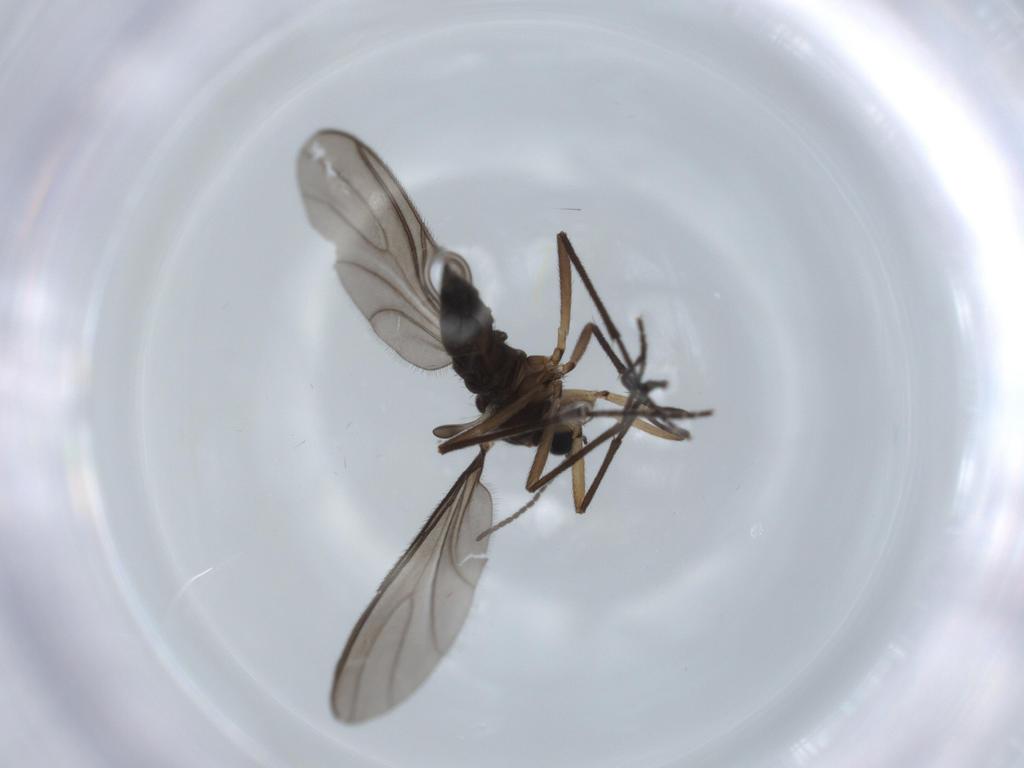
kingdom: Animalia
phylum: Arthropoda
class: Insecta
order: Diptera
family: Sciaridae
